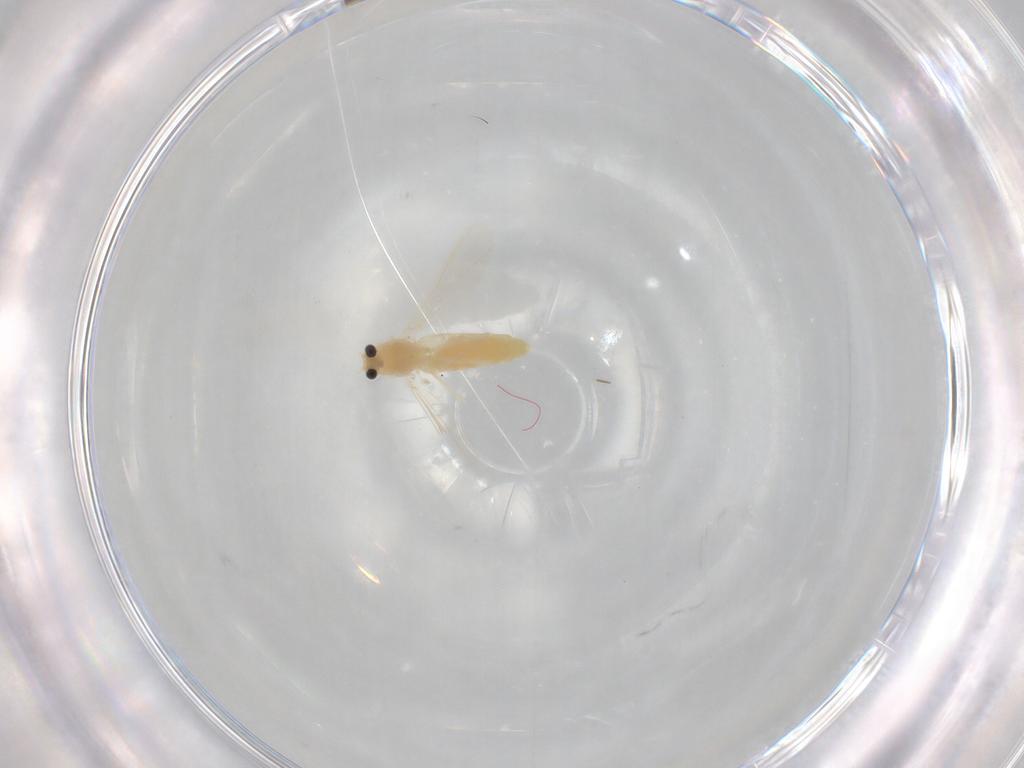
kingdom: Animalia
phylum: Arthropoda
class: Insecta
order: Diptera
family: Chironomidae
